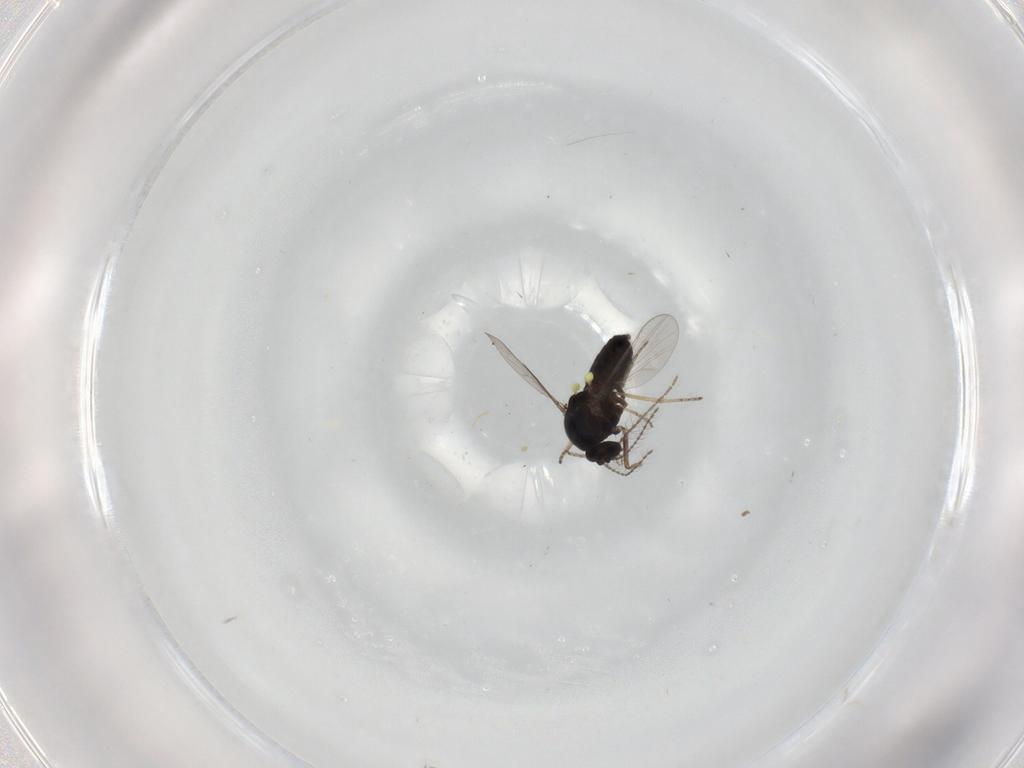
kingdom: Animalia
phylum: Arthropoda
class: Insecta
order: Diptera
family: Ceratopogonidae
